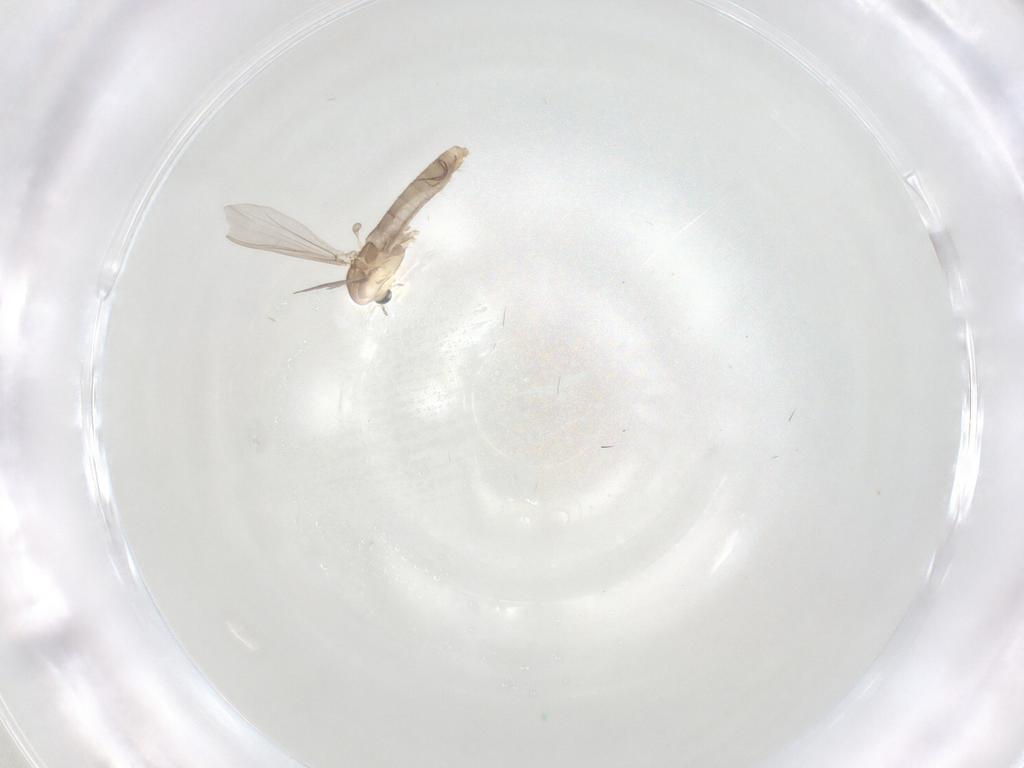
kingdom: Animalia
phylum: Arthropoda
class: Insecta
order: Diptera
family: Chironomidae
